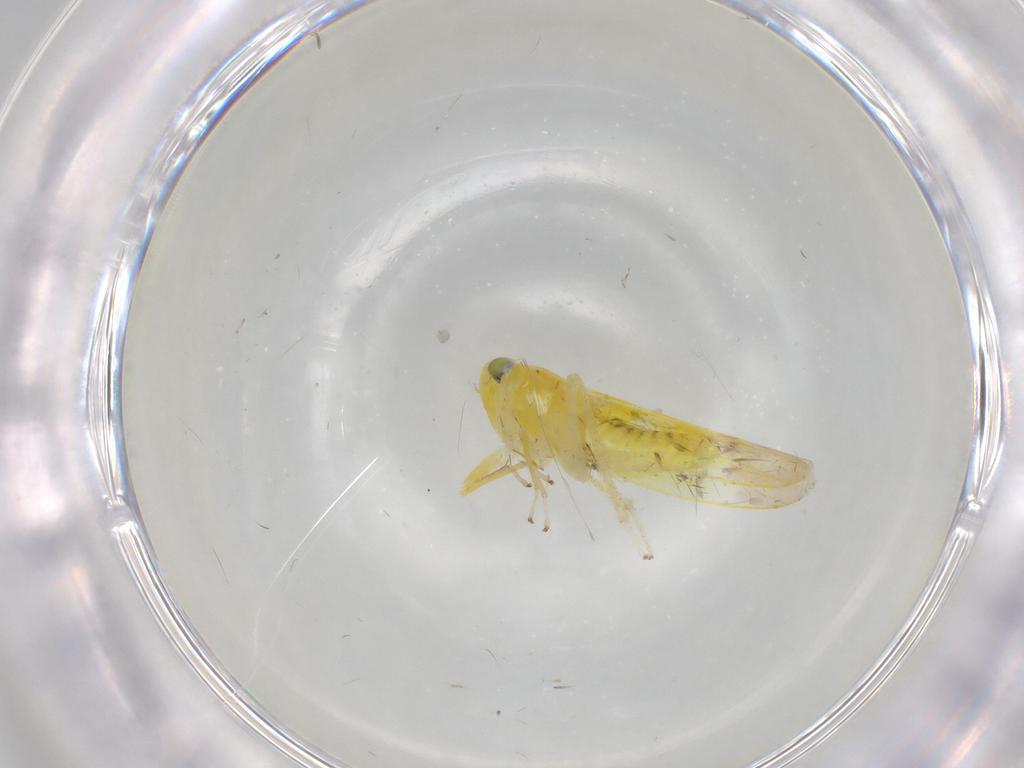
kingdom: Animalia
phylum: Arthropoda
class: Insecta
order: Hemiptera
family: Cicadellidae
